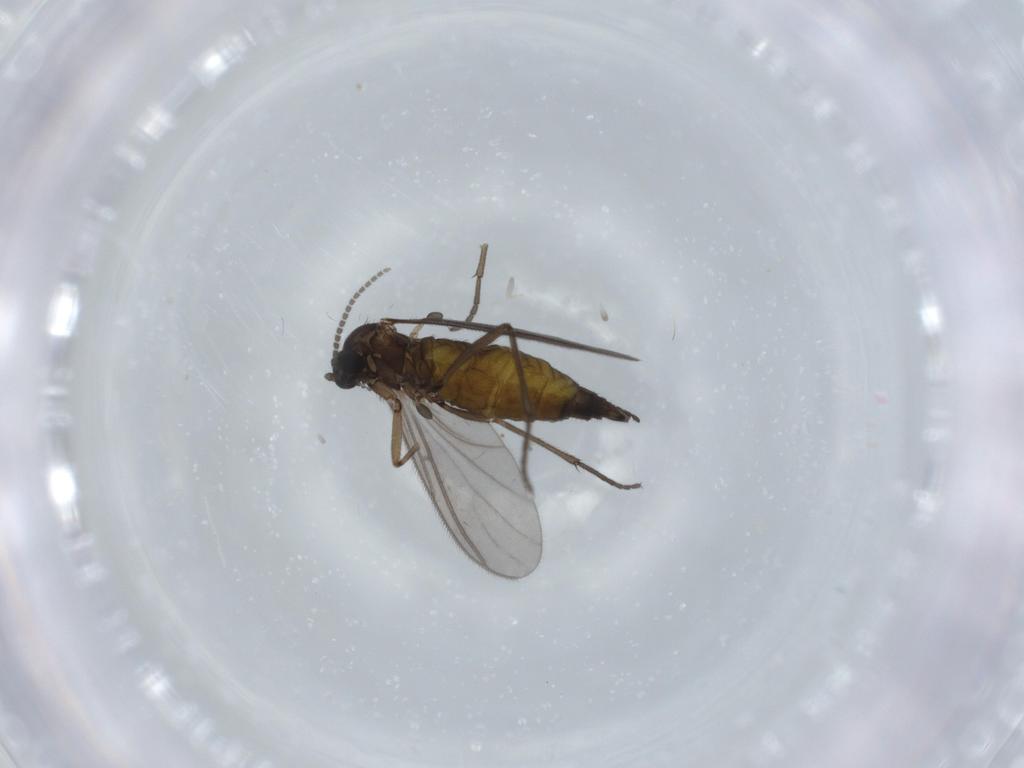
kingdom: Animalia
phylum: Arthropoda
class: Insecta
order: Diptera
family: Sciaridae
